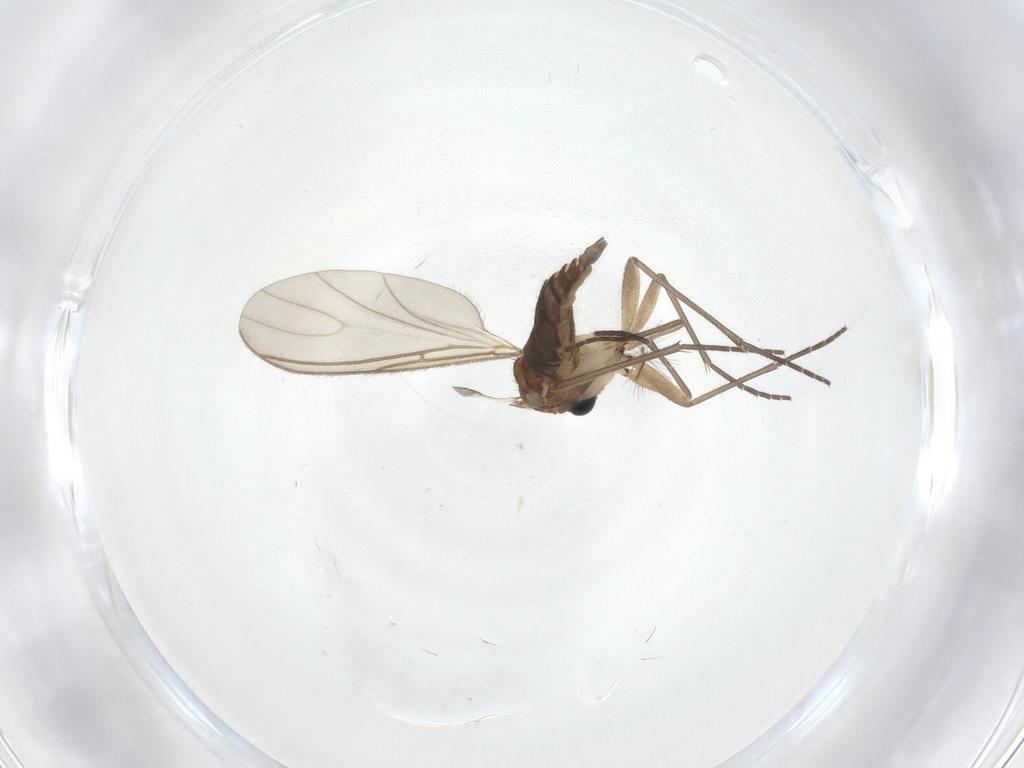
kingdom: Animalia
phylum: Arthropoda
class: Insecta
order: Diptera
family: Sciaridae
